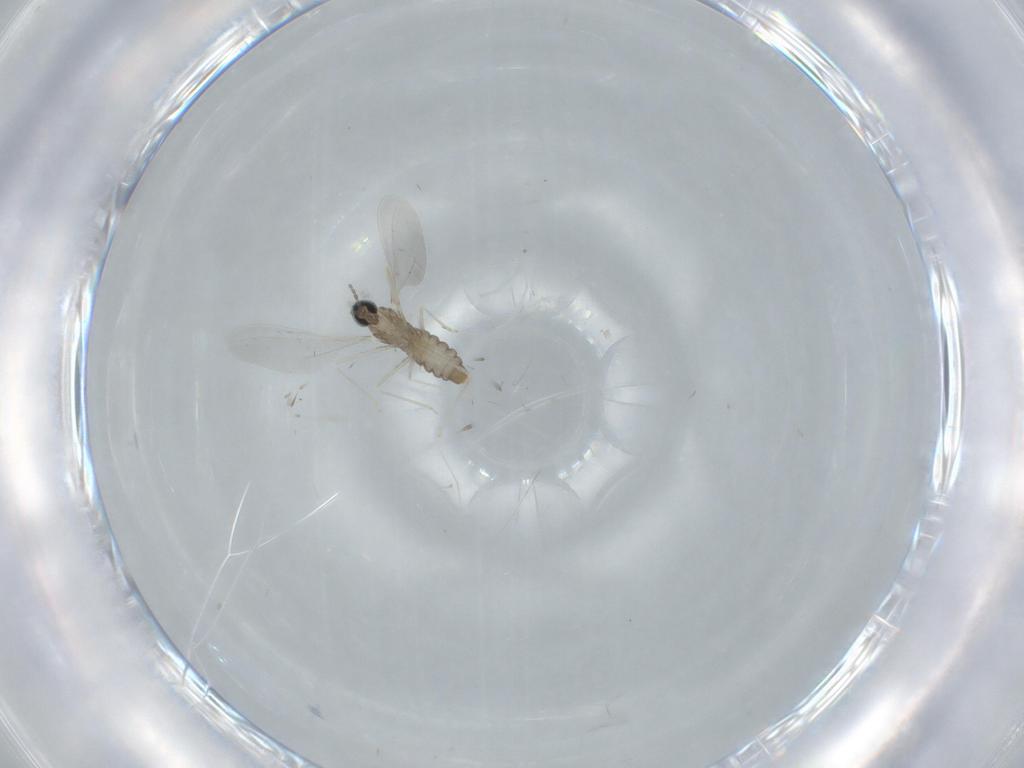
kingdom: Animalia
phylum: Arthropoda
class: Insecta
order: Diptera
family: Cecidomyiidae
